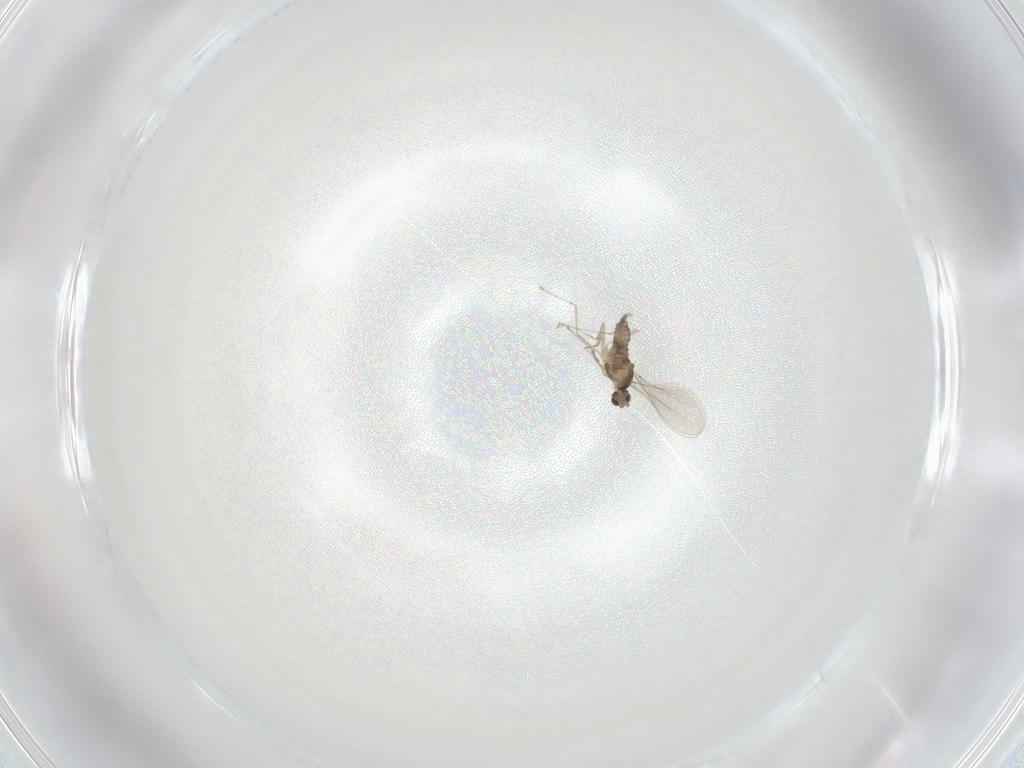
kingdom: Animalia
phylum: Arthropoda
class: Insecta
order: Diptera
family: Cecidomyiidae
